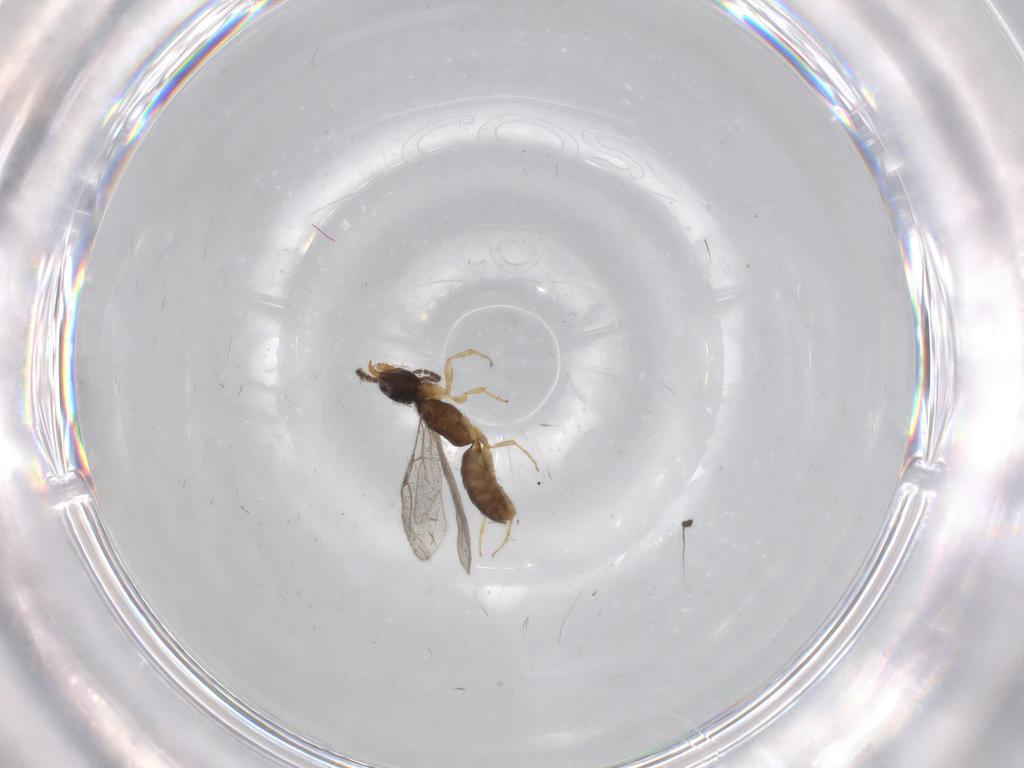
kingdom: Animalia
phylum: Arthropoda
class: Insecta
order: Hymenoptera
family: Bethylidae
